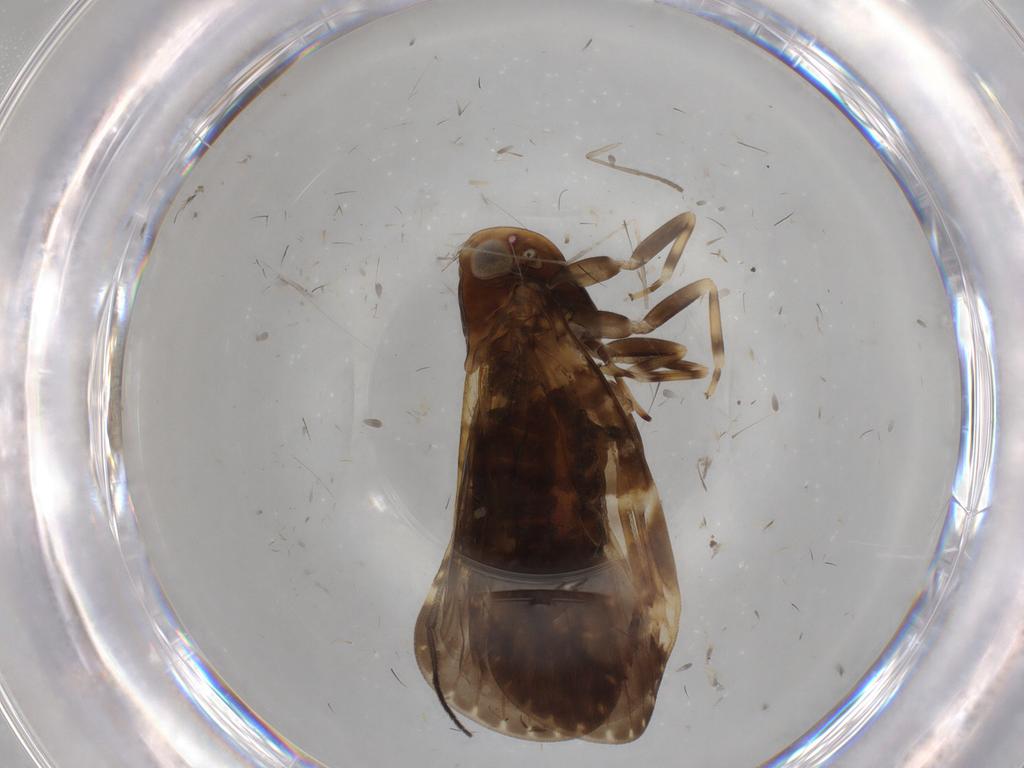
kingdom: Animalia
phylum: Arthropoda
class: Insecta
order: Hemiptera
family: Cixiidae
